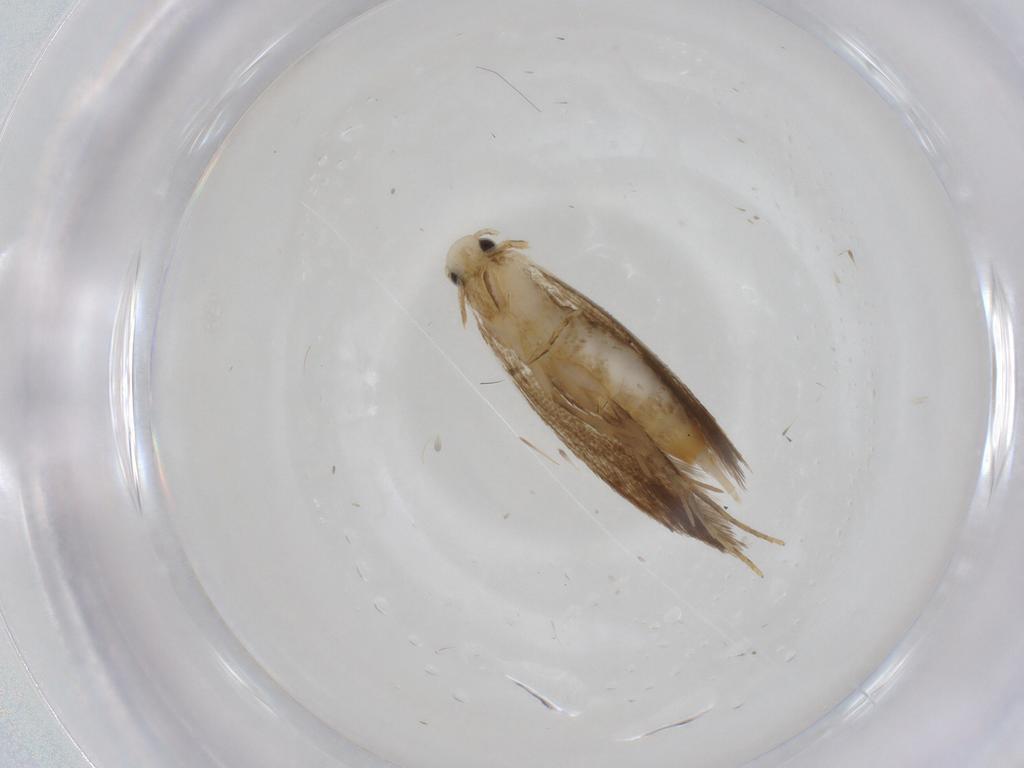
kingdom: Animalia
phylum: Arthropoda
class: Insecta
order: Lepidoptera
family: Tineidae
